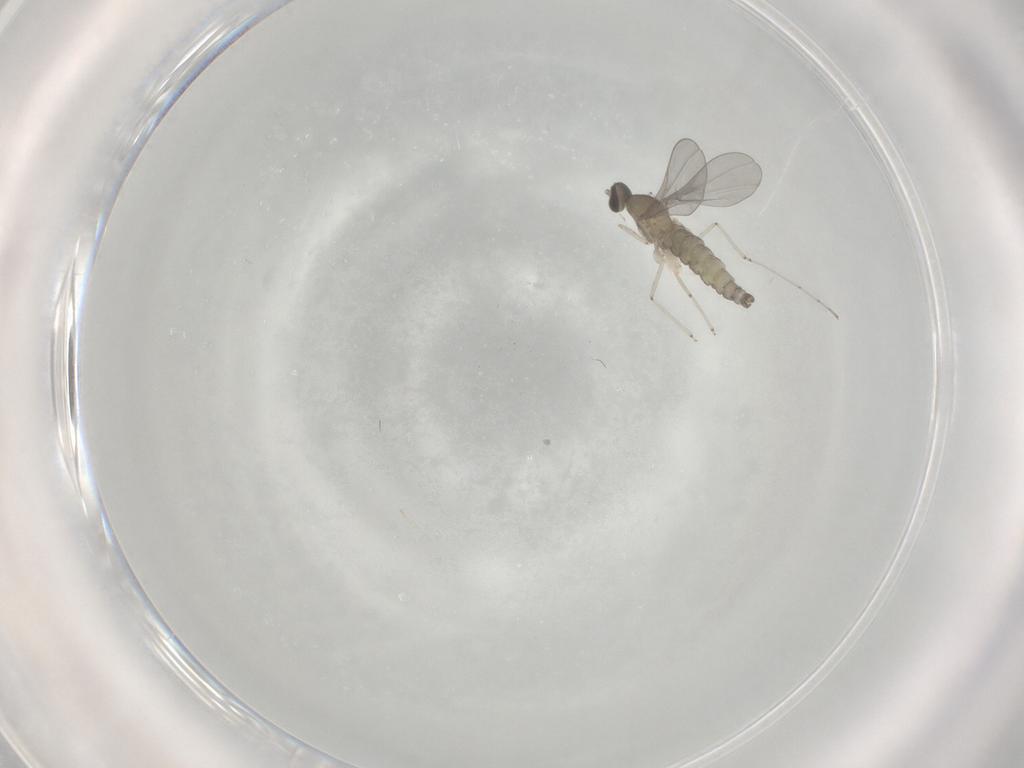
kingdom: Animalia
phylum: Arthropoda
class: Insecta
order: Diptera
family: Cecidomyiidae
